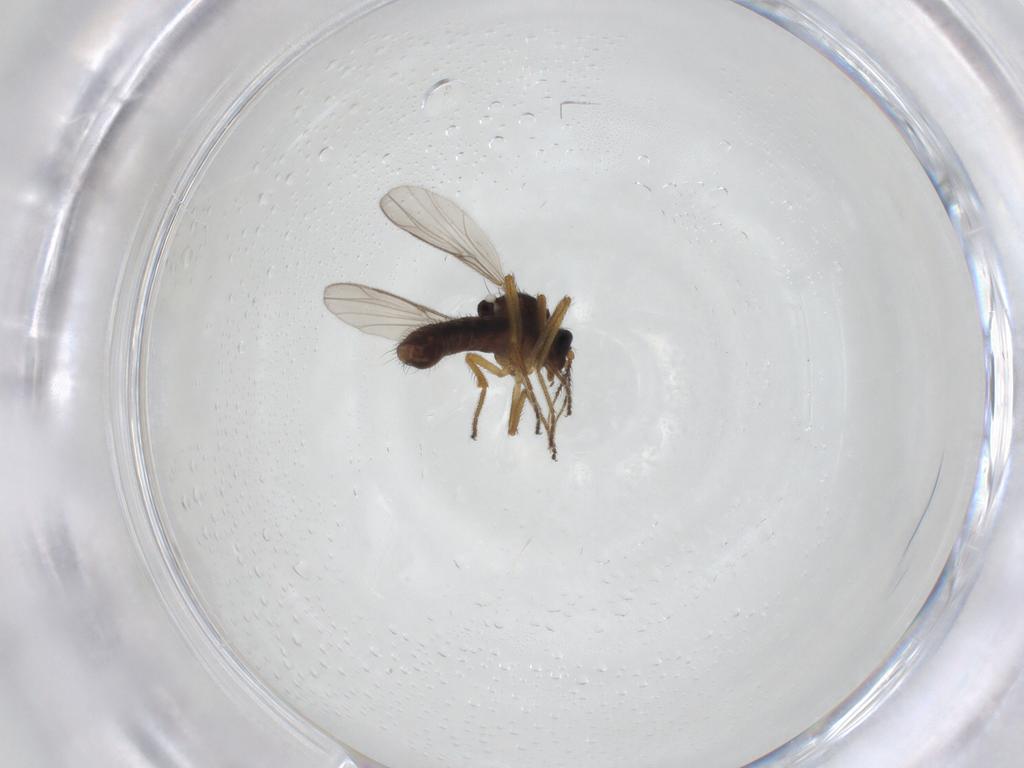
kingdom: Animalia
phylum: Arthropoda
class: Insecta
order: Diptera
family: Ceratopogonidae
